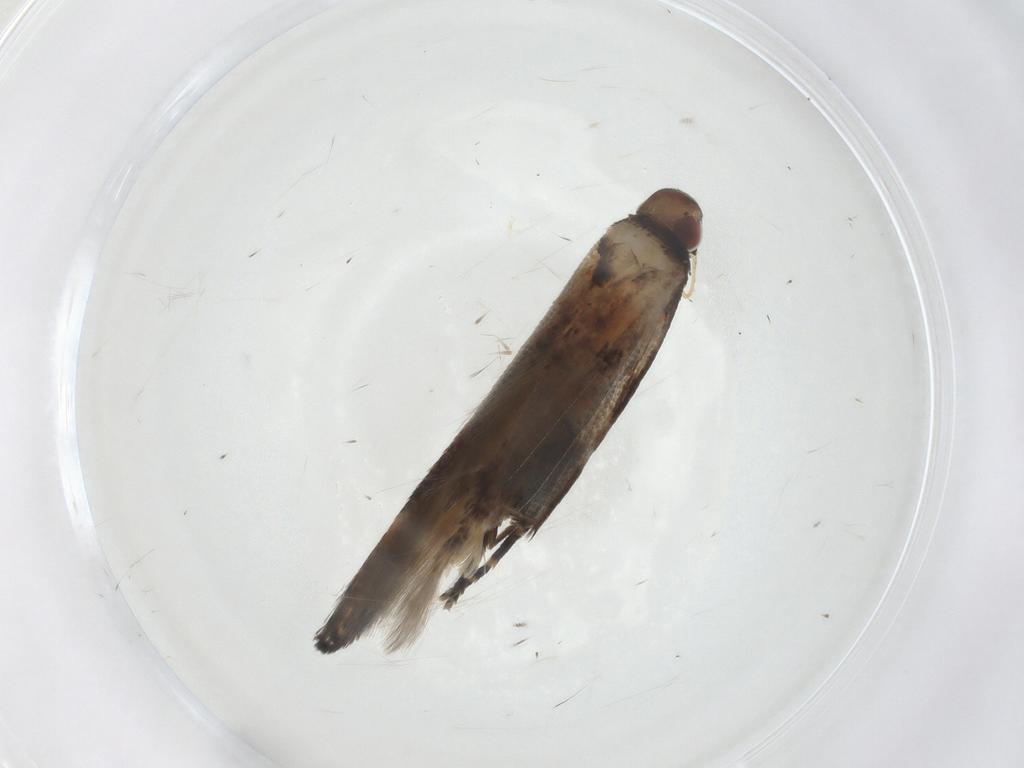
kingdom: Animalia
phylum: Arthropoda
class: Insecta
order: Lepidoptera
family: Elachistidae
